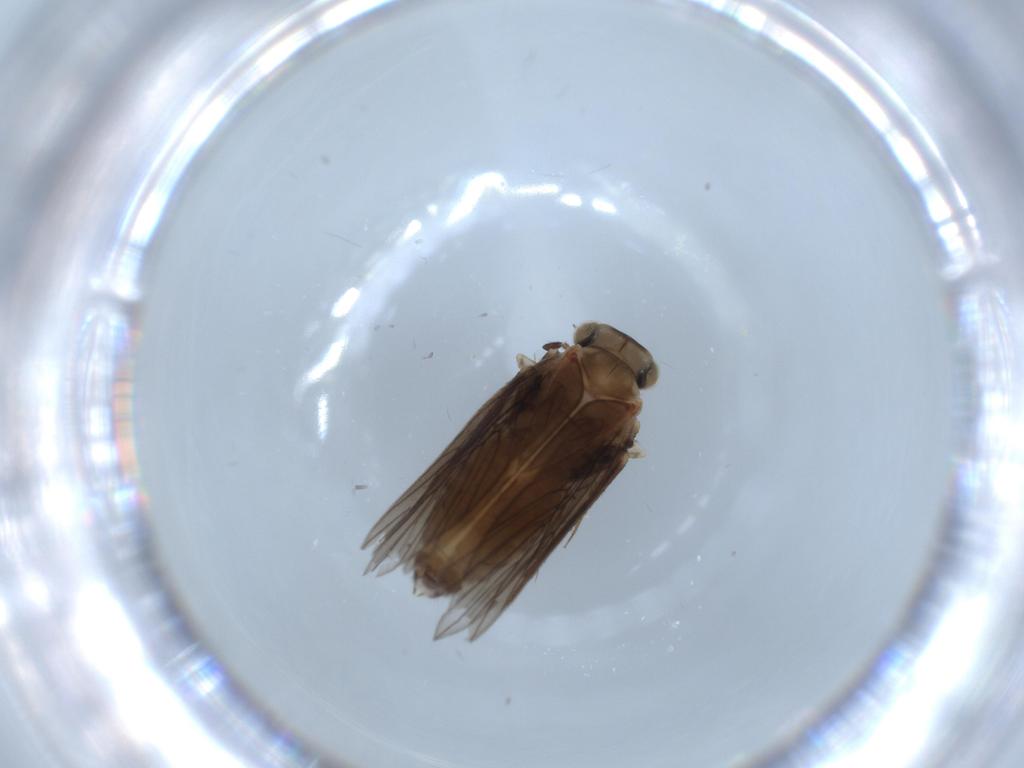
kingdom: Animalia
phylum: Arthropoda
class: Insecta
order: Psocodea
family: Lepidopsocidae
